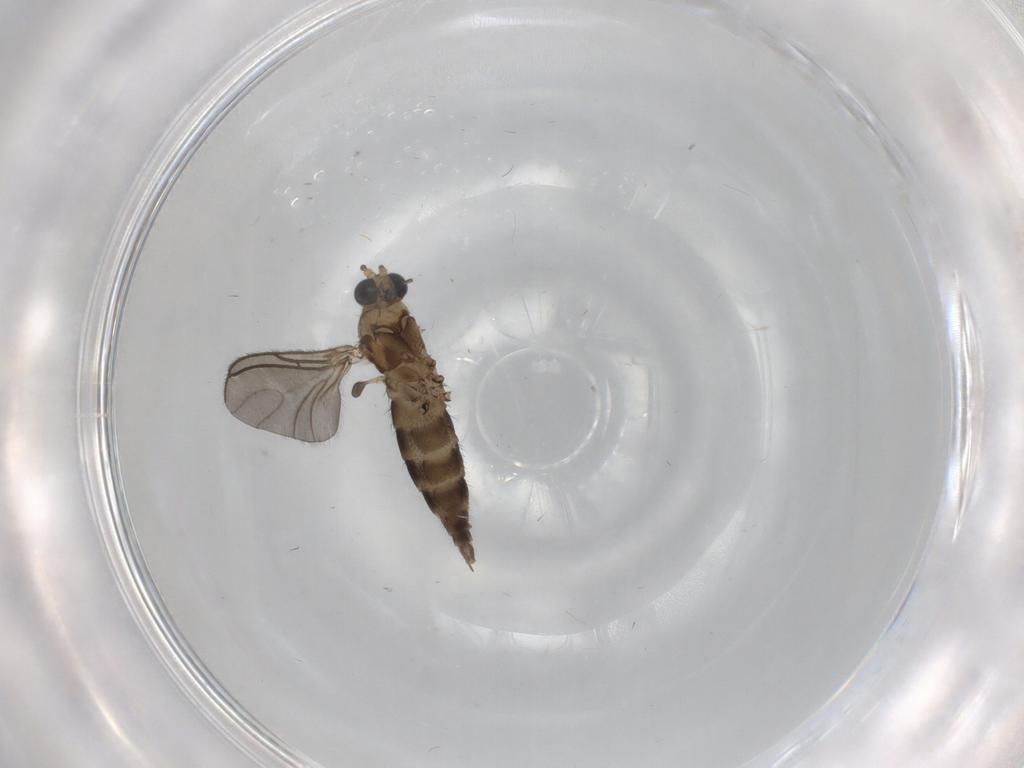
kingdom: Animalia
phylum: Arthropoda
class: Insecta
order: Diptera
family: Sciaridae
